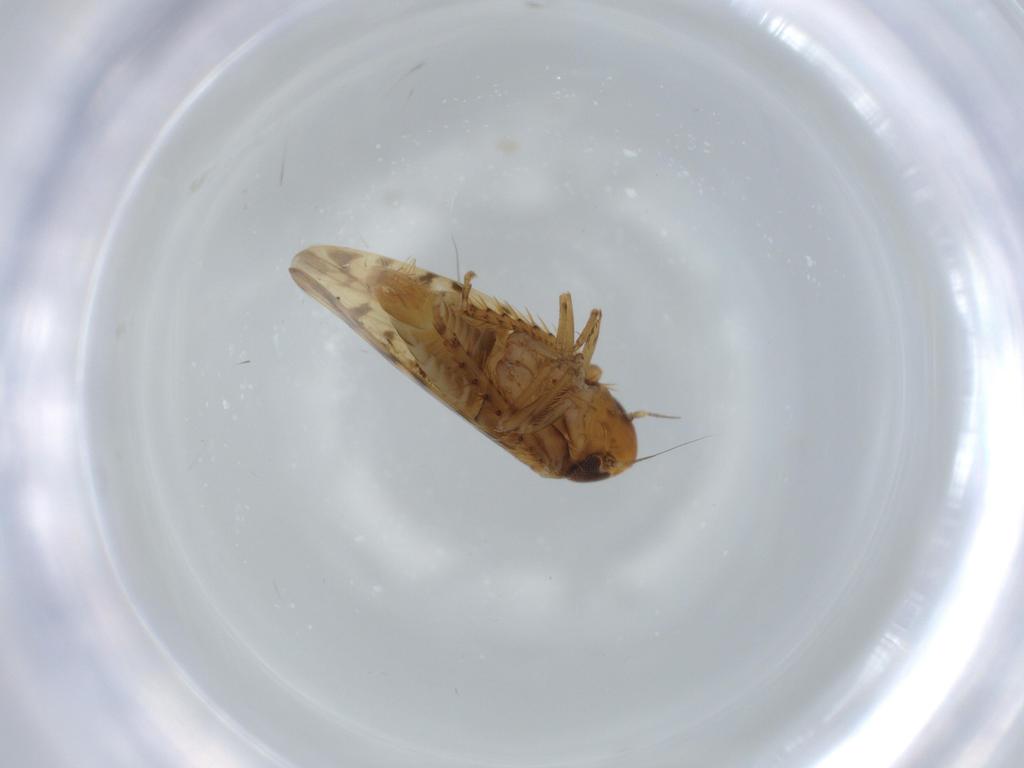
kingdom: Animalia
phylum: Arthropoda
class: Insecta
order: Hemiptera
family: Cicadellidae
